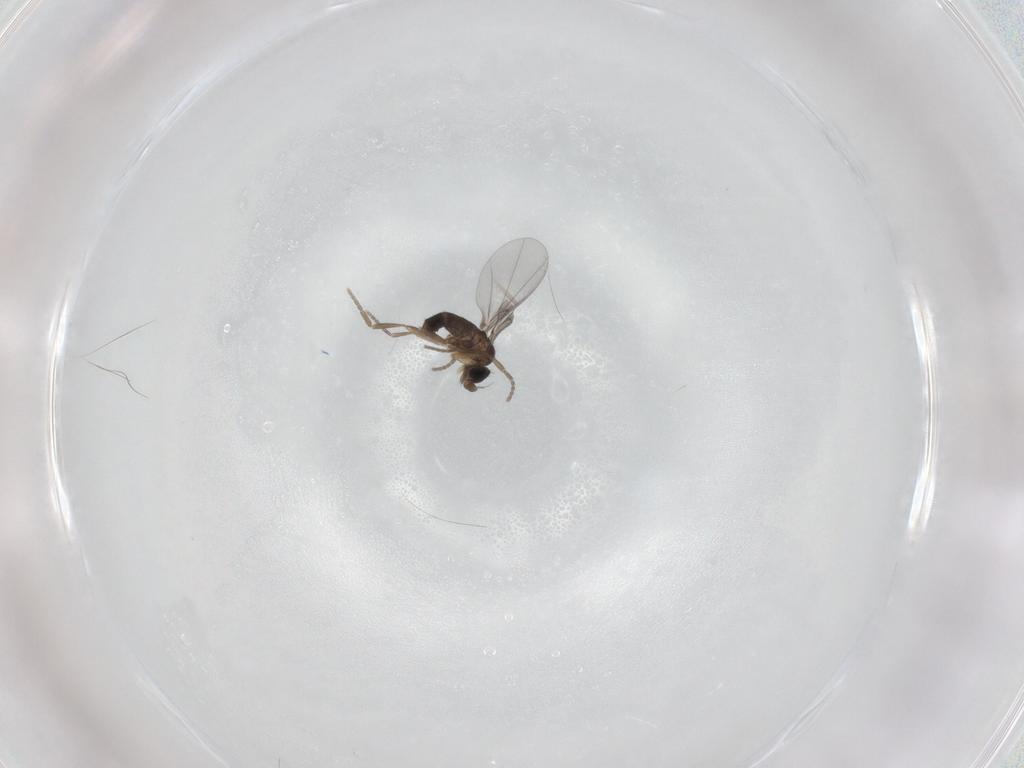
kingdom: Animalia
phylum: Arthropoda
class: Insecta
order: Diptera
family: Phoridae
